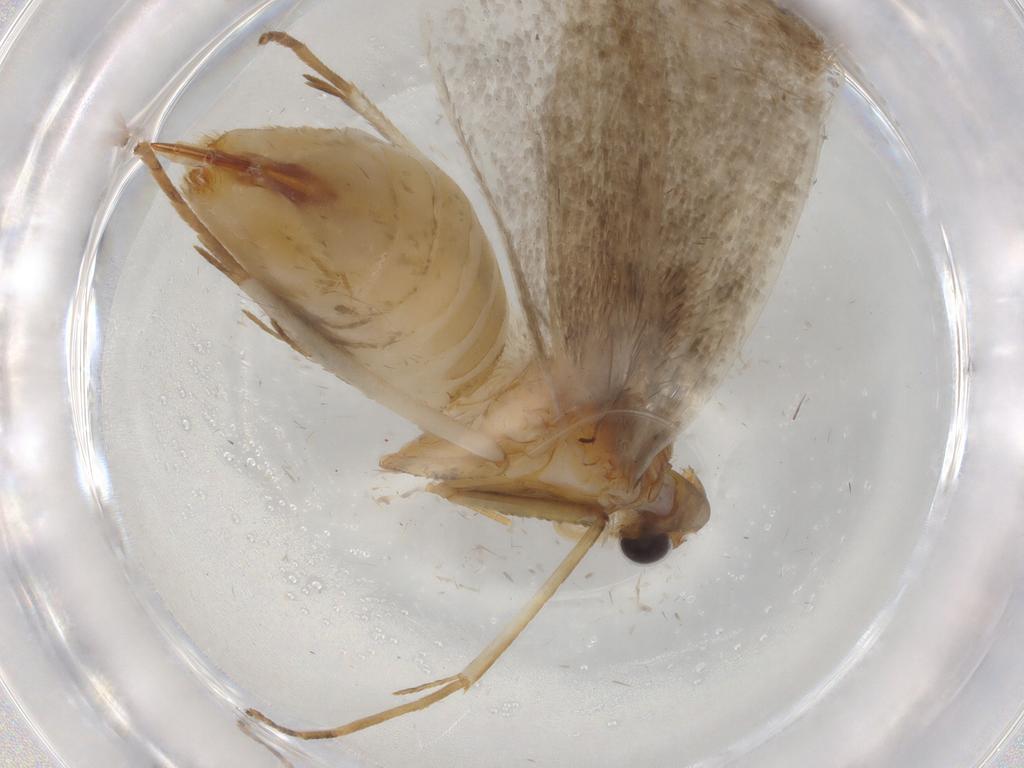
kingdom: Animalia
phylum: Arthropoda
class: Insecta
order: Lepidoptera
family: Adelidae
